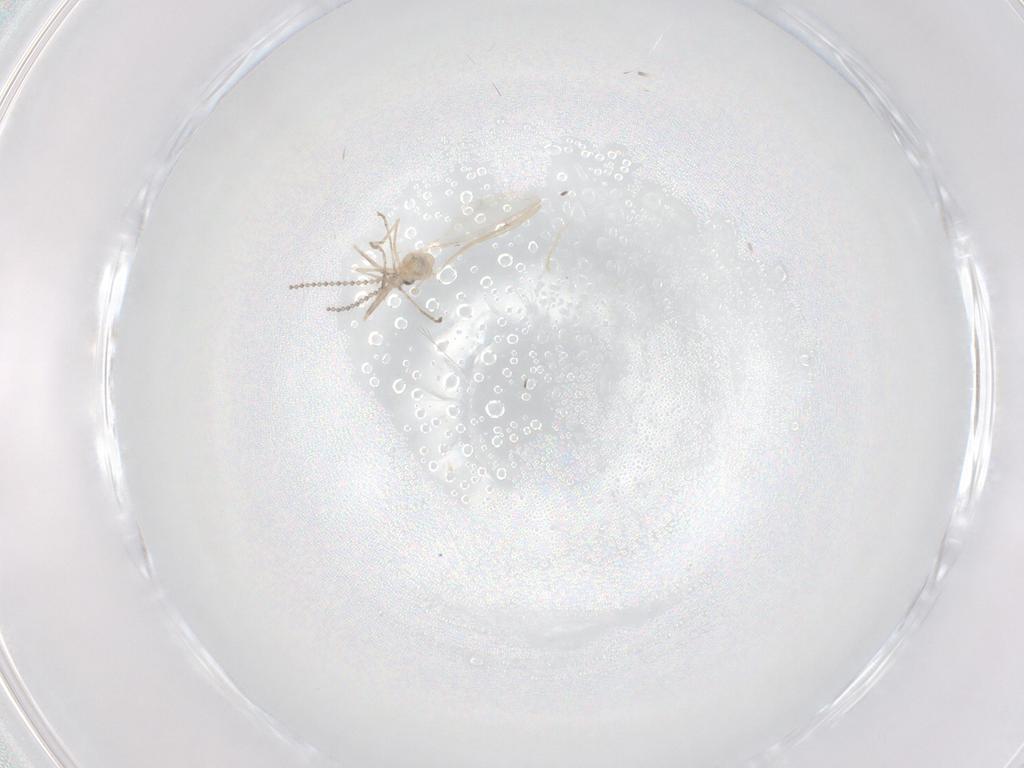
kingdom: Animalia
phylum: Arthropoda
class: Insecta
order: Diptera
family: Cecidomyiidae
